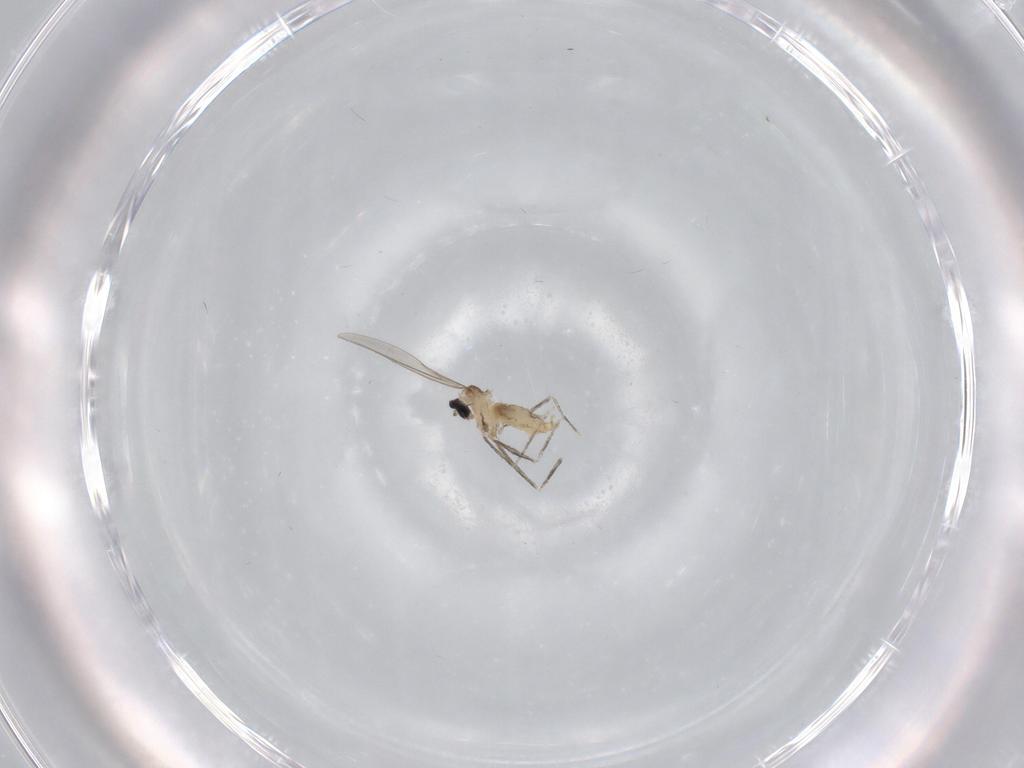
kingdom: Animalia
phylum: Arthropoda
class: Insecta
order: Diptera
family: Cecidomyiidae
